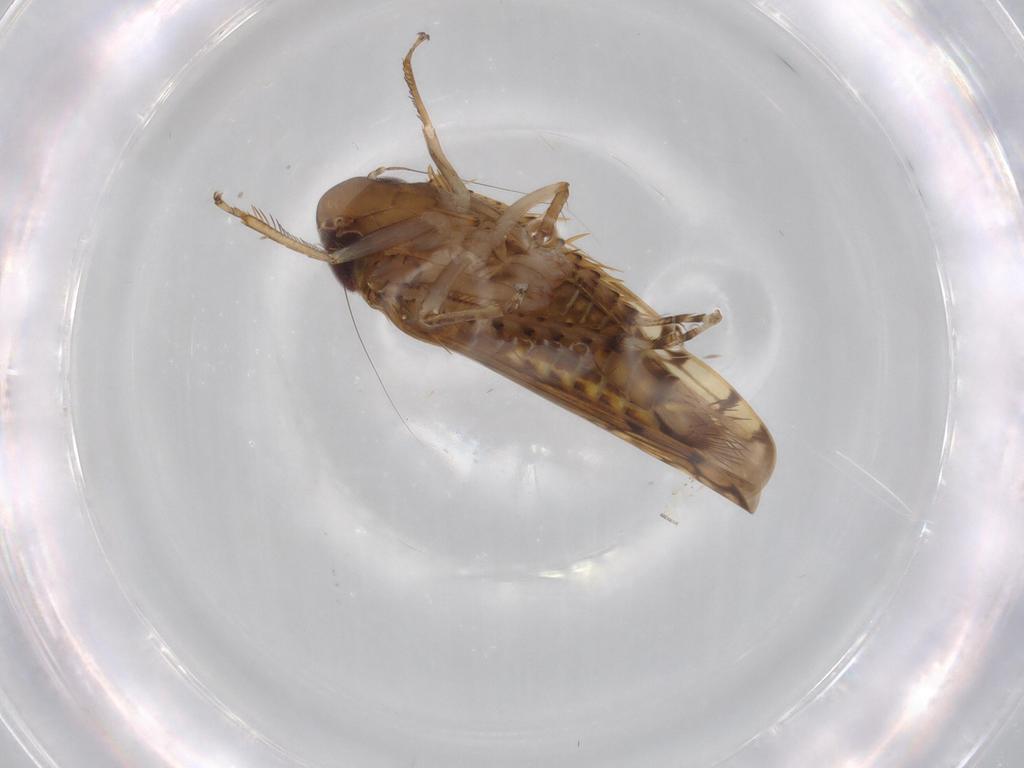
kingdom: Animalia
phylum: Arthropoda
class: Insecta
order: Hemiptera
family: Cicadellidae
